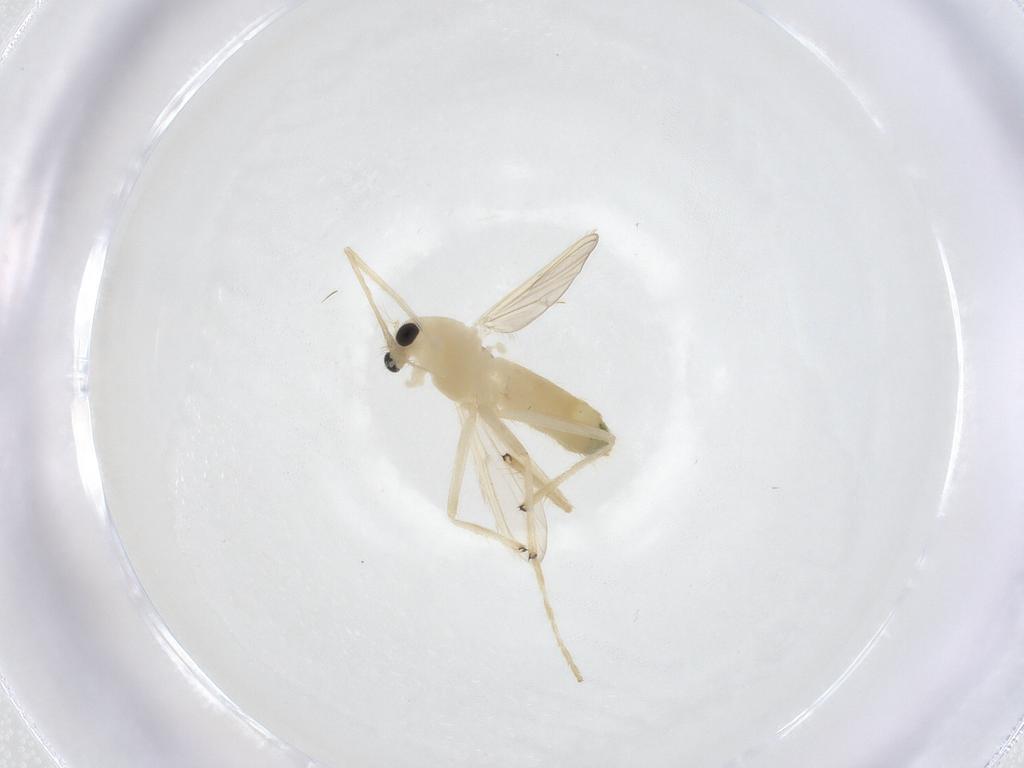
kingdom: Animalia
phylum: Arthropoda
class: Insecta
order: Diptera
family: Chironomidae
